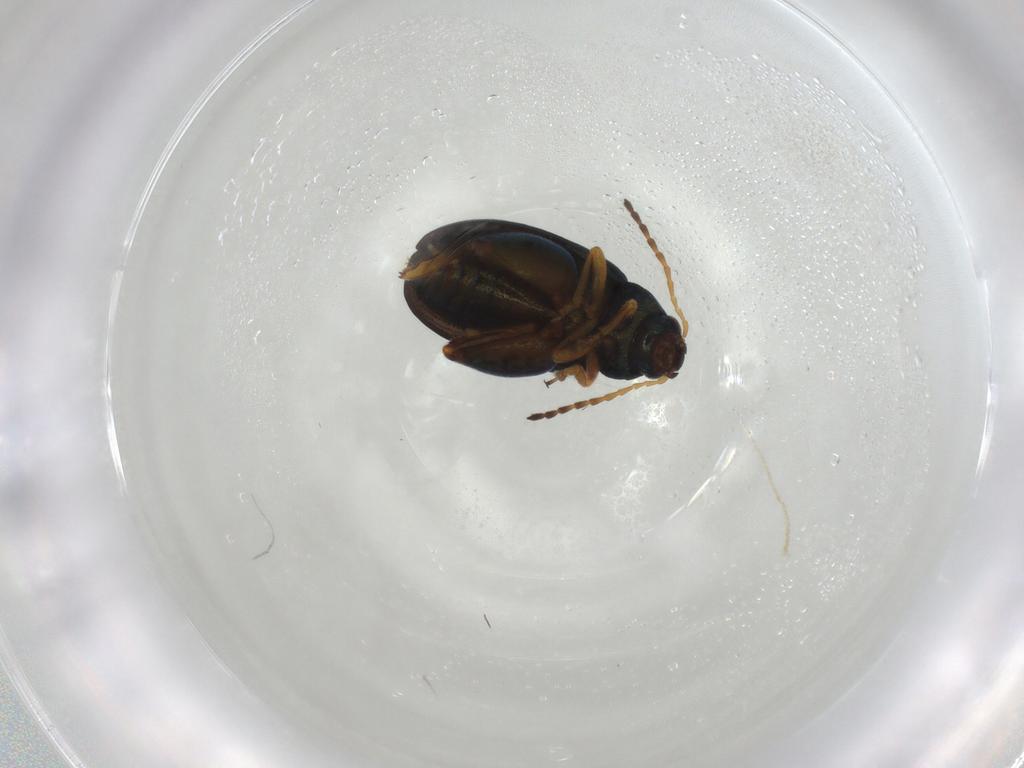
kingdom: Animalia
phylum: Arthropoda
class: Insecta
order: Coleoptera
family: Chrysomelidae
